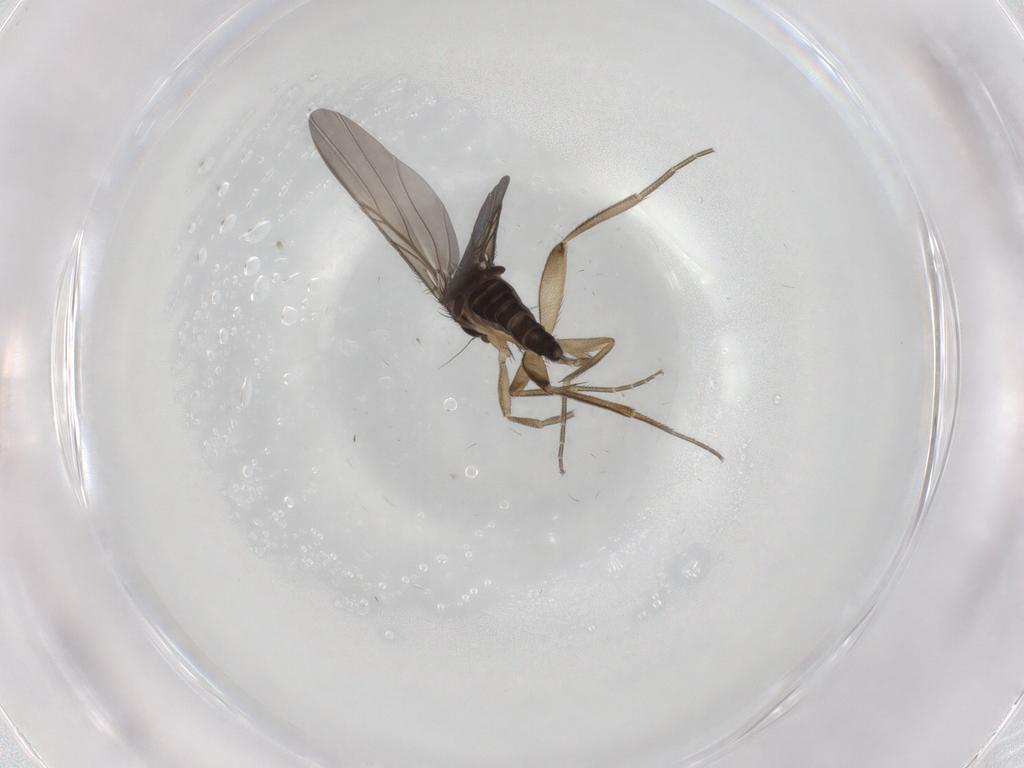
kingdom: Animalia
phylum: Arthropoda
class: Insecta
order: Diptera
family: Phoridae
